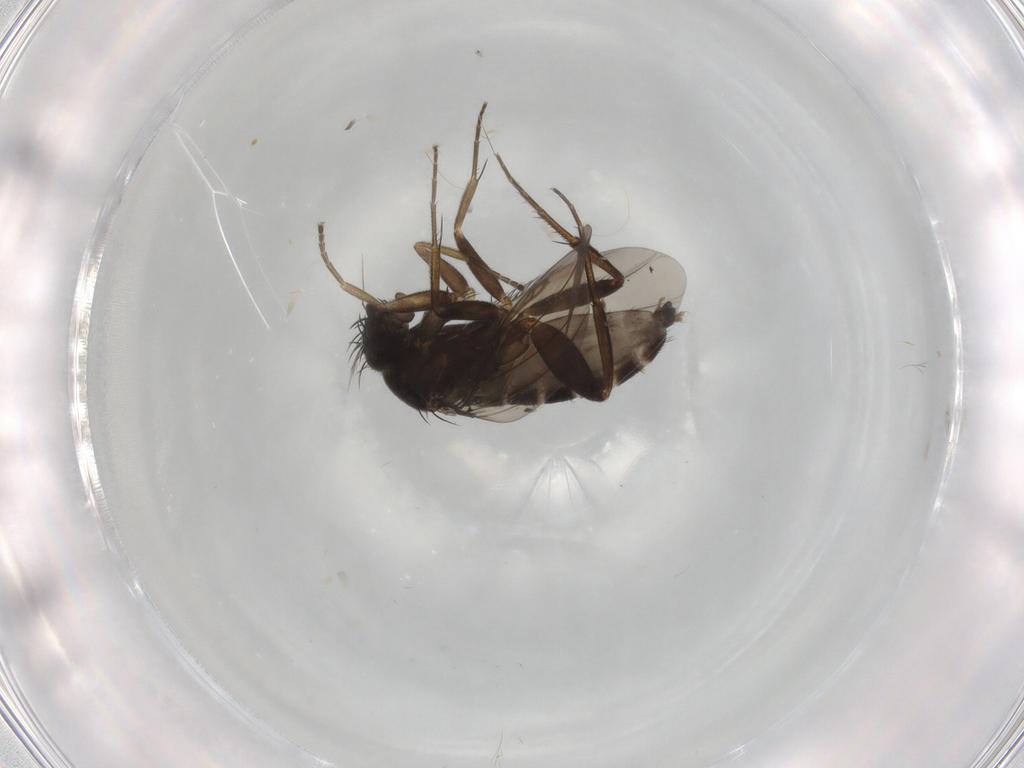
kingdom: Animalia
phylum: Arthropoda
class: Insecta
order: Diptera
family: Phoridae
